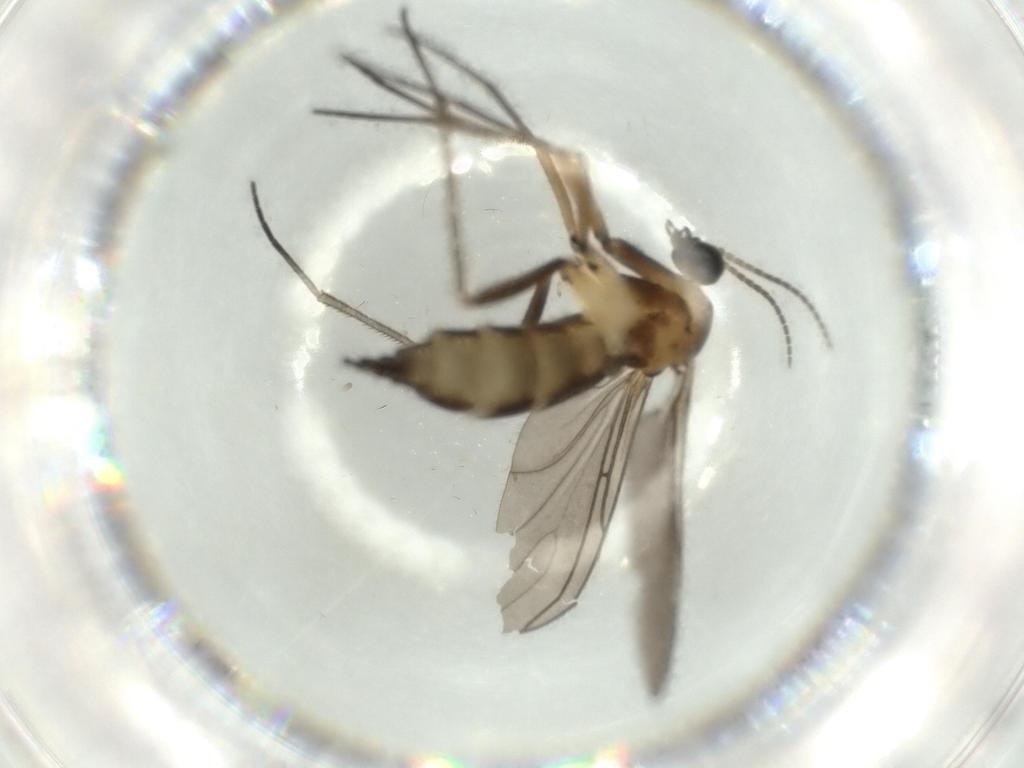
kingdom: Animalia
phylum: Arthropoda
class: Insecta
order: Diptera
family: Sciaridae
